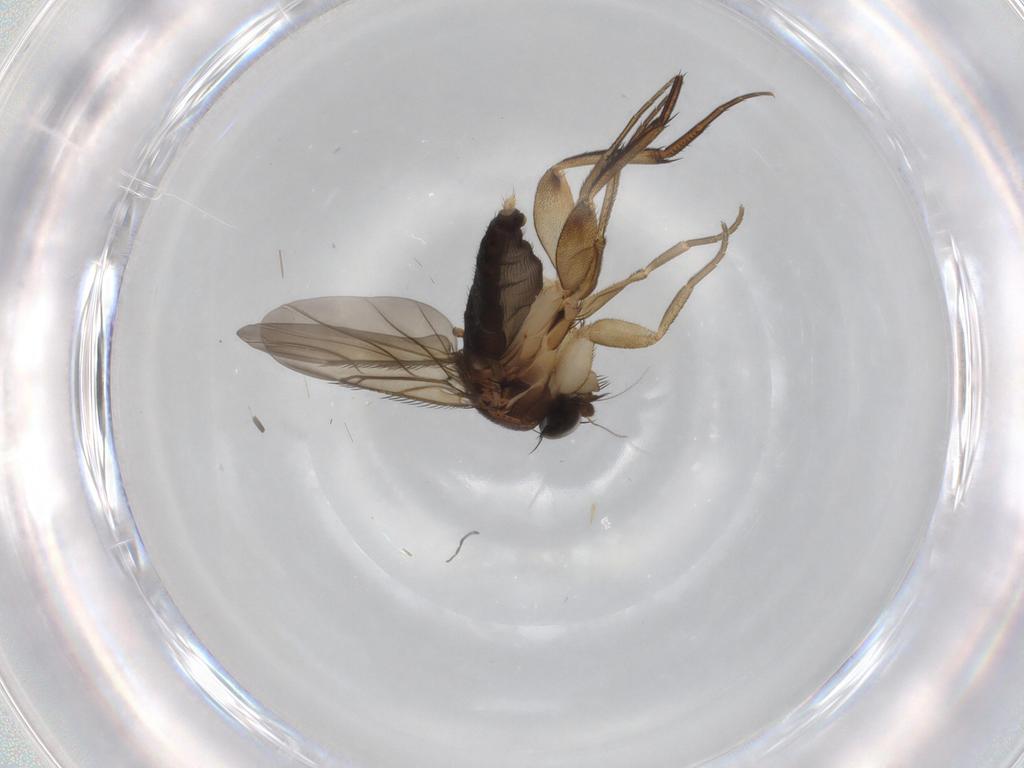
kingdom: Animalia
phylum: Arthropoda
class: Insecta
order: Diptera
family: Phoridae
